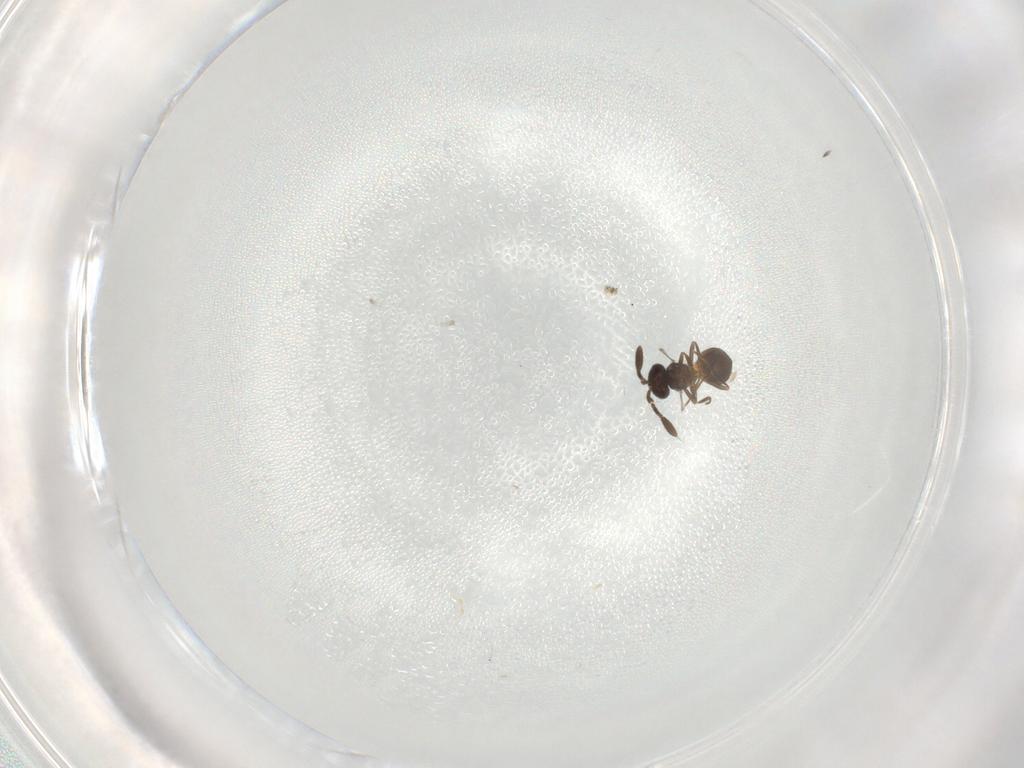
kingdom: Animalia
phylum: Arthropoda
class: Insecta
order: Hymenoptera
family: Scelionidae
